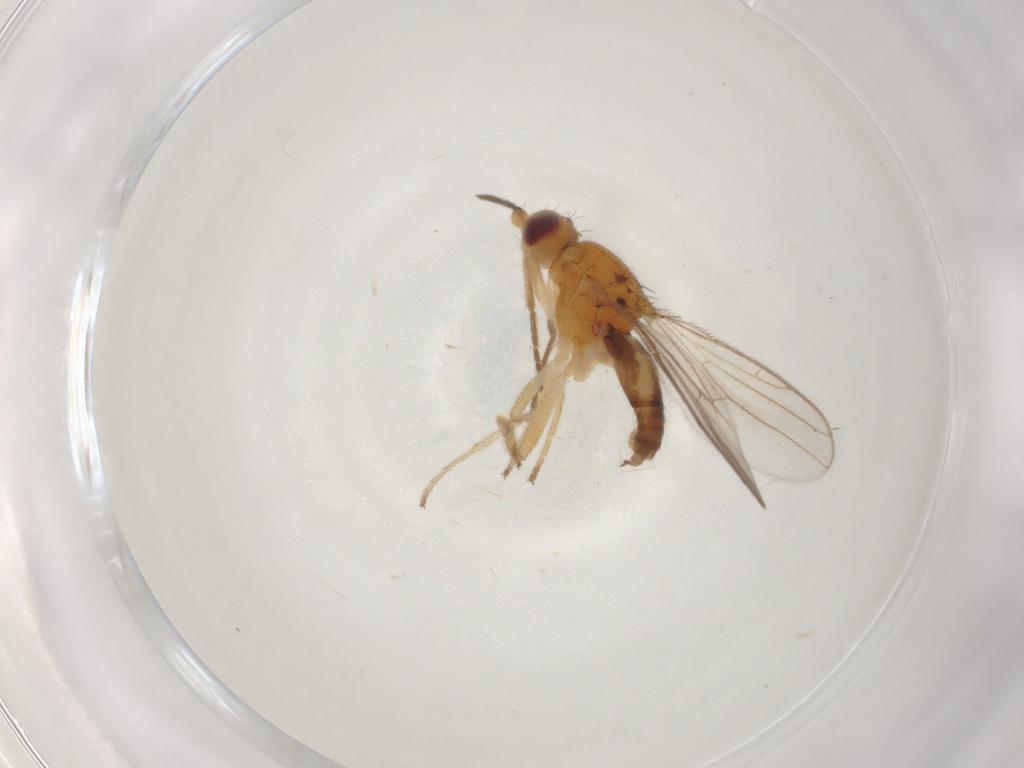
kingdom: Animalia
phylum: Arthropoda
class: Insecta
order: Diptera
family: Chloropidae
